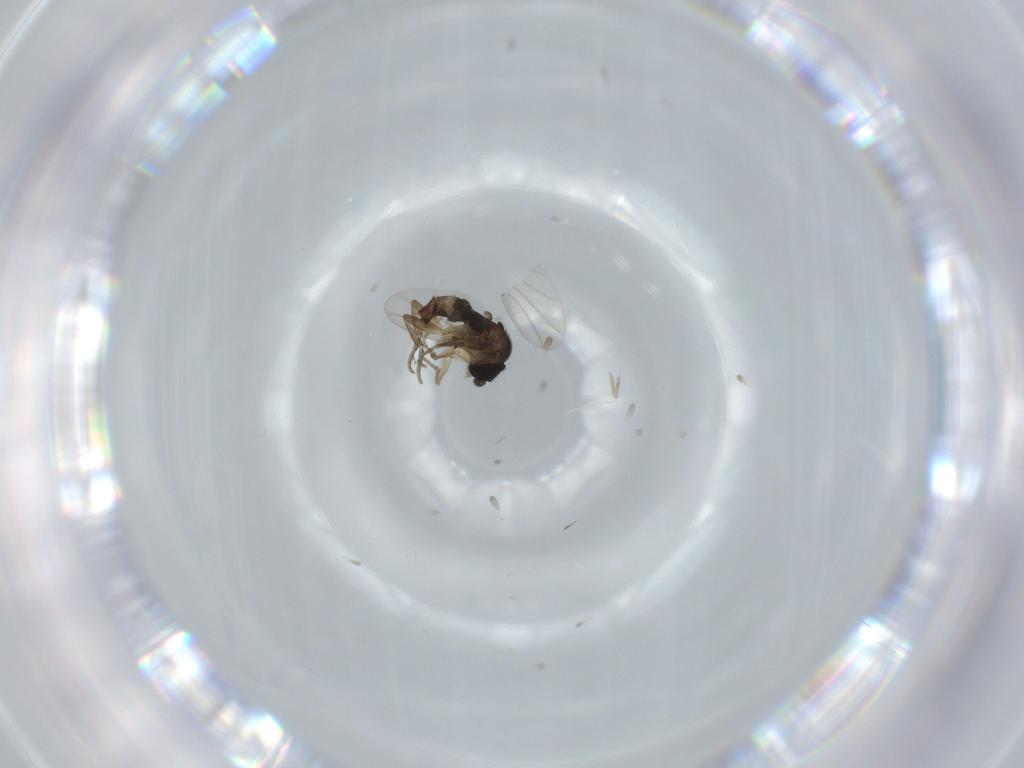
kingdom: Animalia
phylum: Arthropoda
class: Insecta
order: Diptera
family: Phoridae
